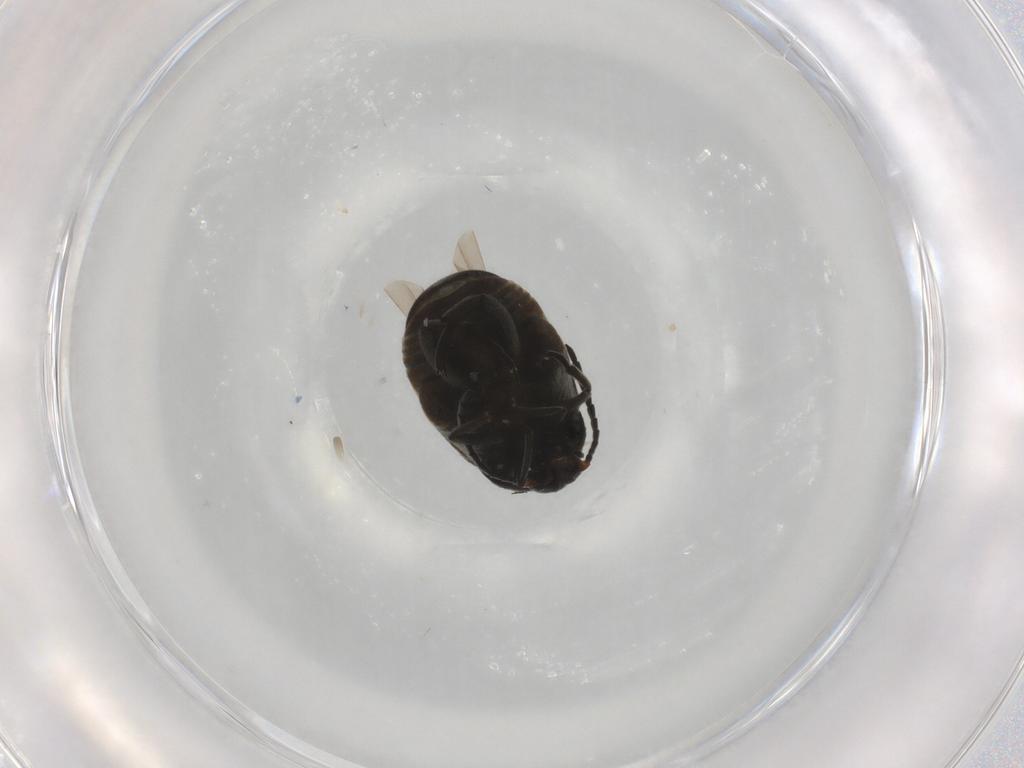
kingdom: Animalia
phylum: Arthropoda
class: Insecta
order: Coleoptera
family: Chrysomelidae
